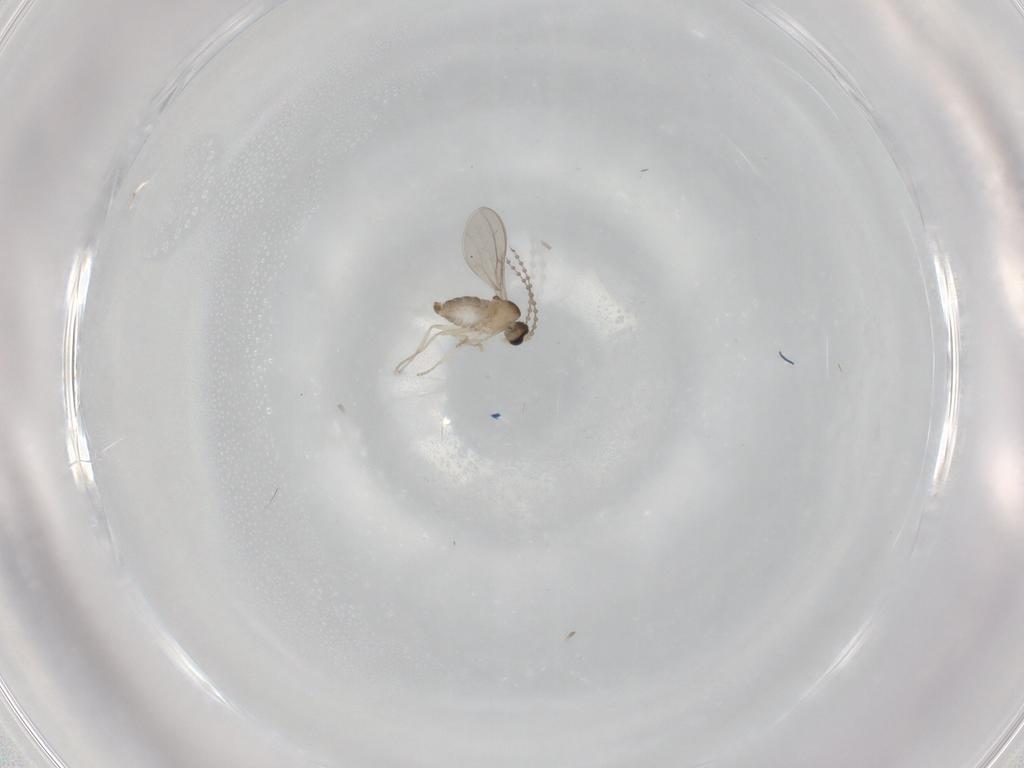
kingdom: Animalia
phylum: Arthropoda
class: Insecta
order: Diptera
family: Cecidomyiidae
